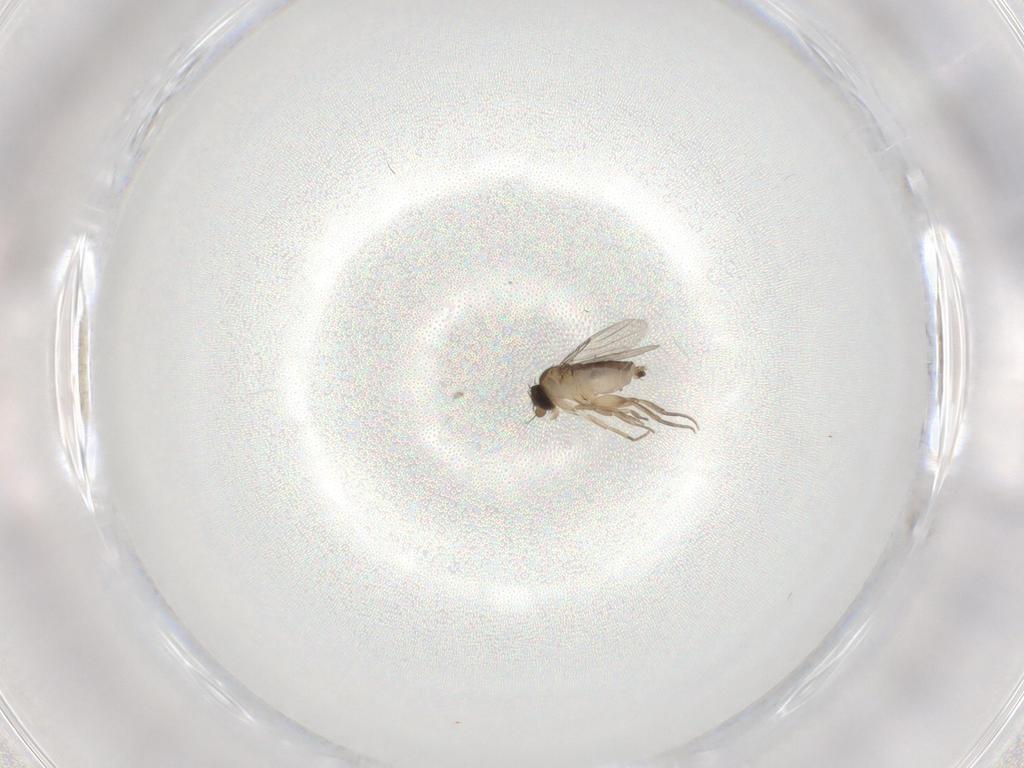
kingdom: Animalia
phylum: Arthropoda
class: Insecta
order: Diptera
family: Phoridae
